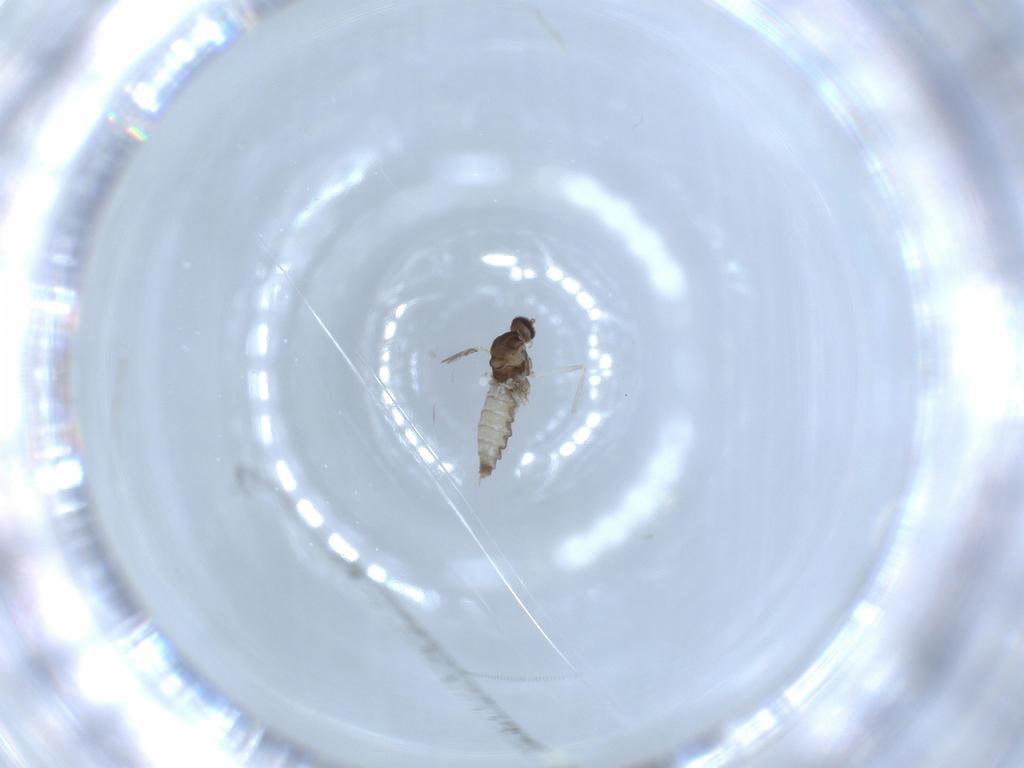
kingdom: Animalia
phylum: Arthropoda
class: Insecta
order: Diptera
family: Cecidomyiidae
